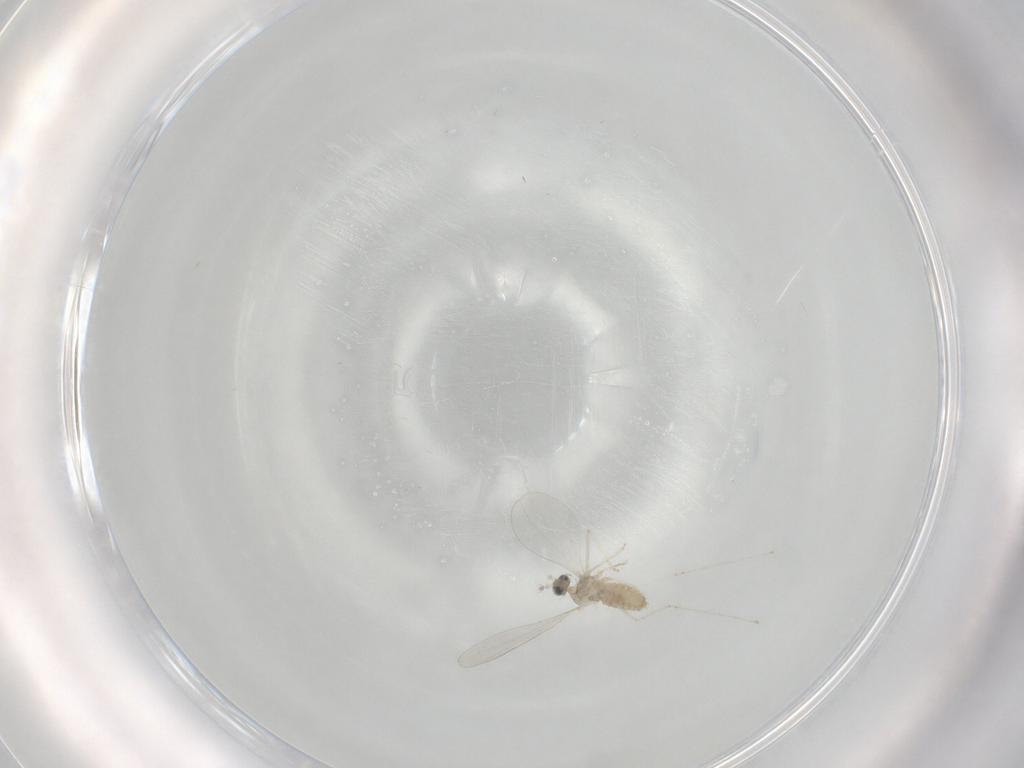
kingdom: Animalia
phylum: Arthropoda
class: Insecta
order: Diptera
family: Cecidomyiidae
